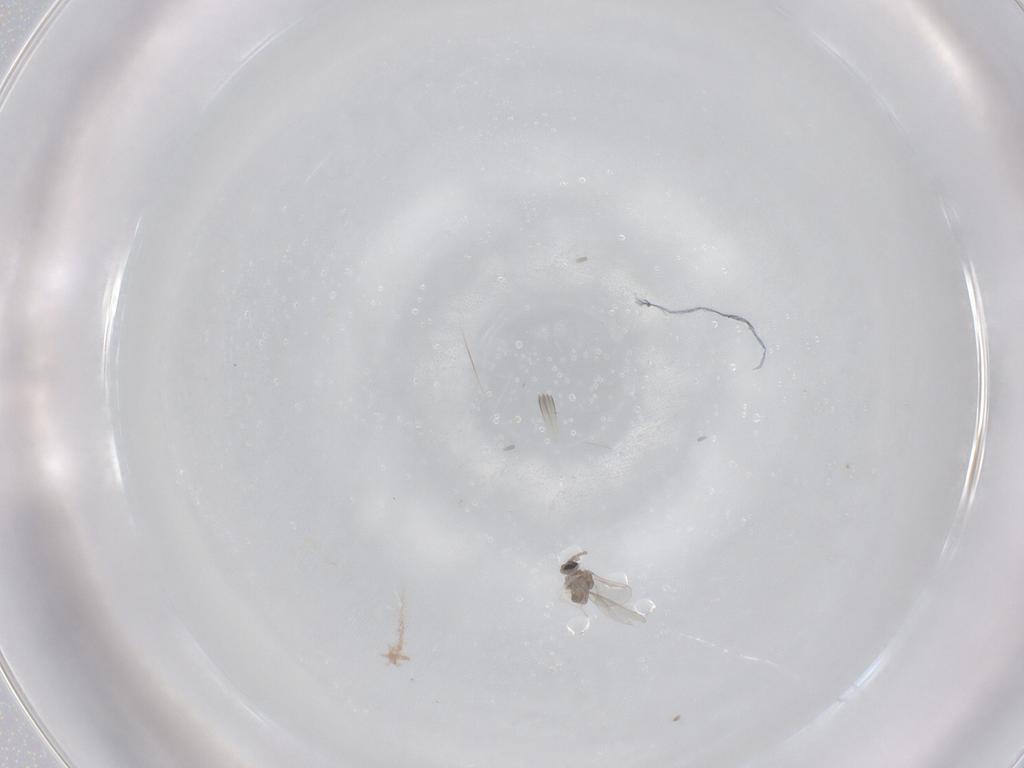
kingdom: Animalia
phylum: Arthropoda
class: Insecta
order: Diptera
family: Cecidomyiidae
